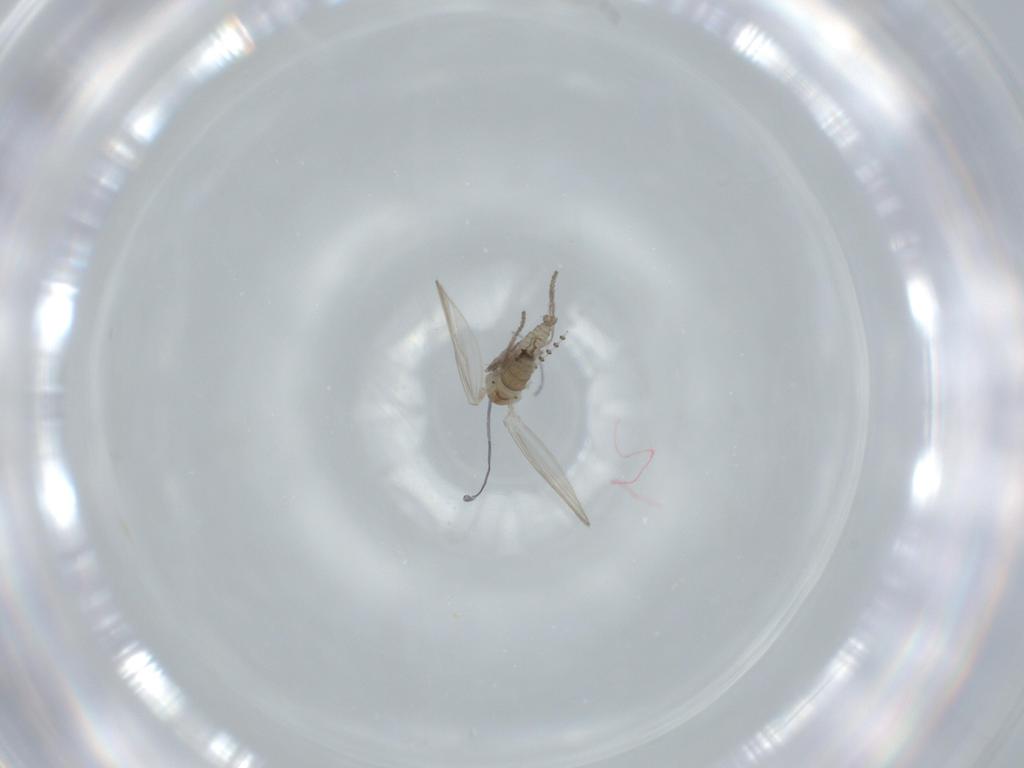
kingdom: Animalia
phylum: Arthropoda
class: Insecta
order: Diptera
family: Psychodidae
